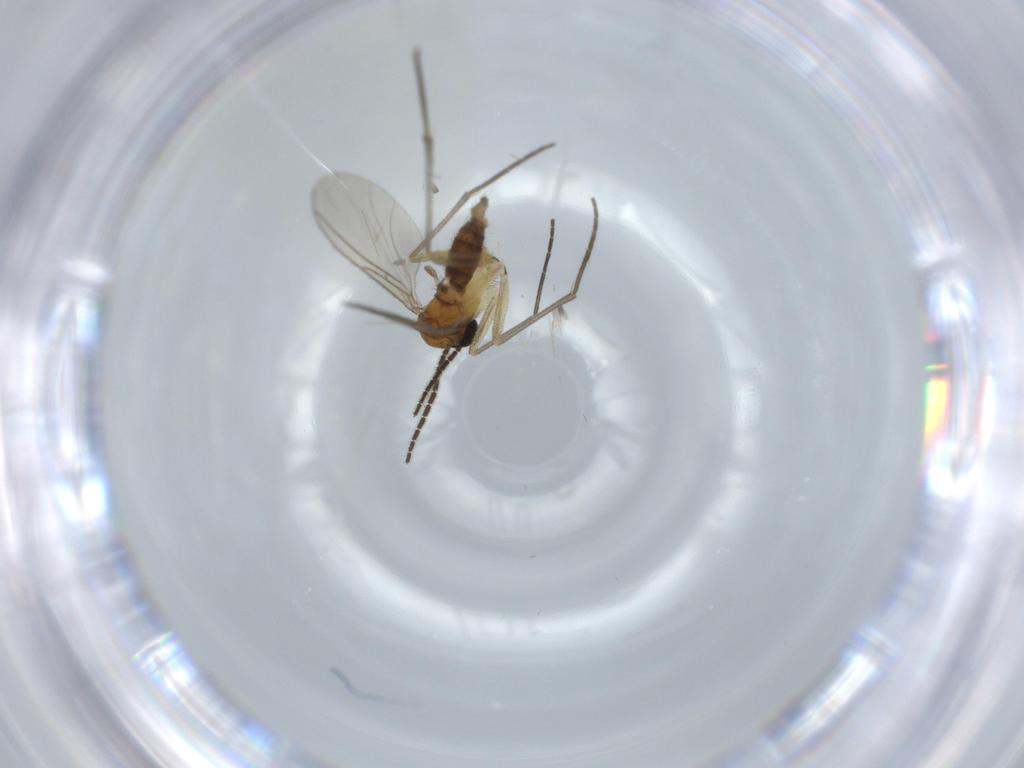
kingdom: Animalia
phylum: Arthropoda
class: Insecta
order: Diptera
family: Sciaridae
